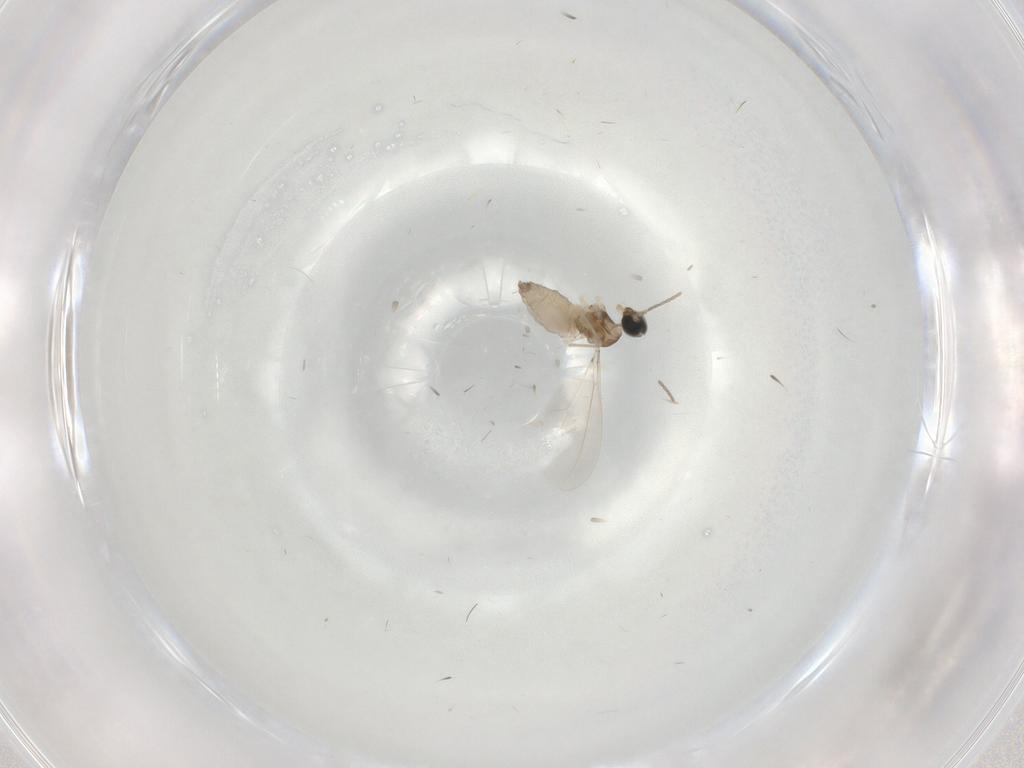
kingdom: Animalia
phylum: Arthropoda
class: Insecta
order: Diptera
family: Cecidomyiidae
